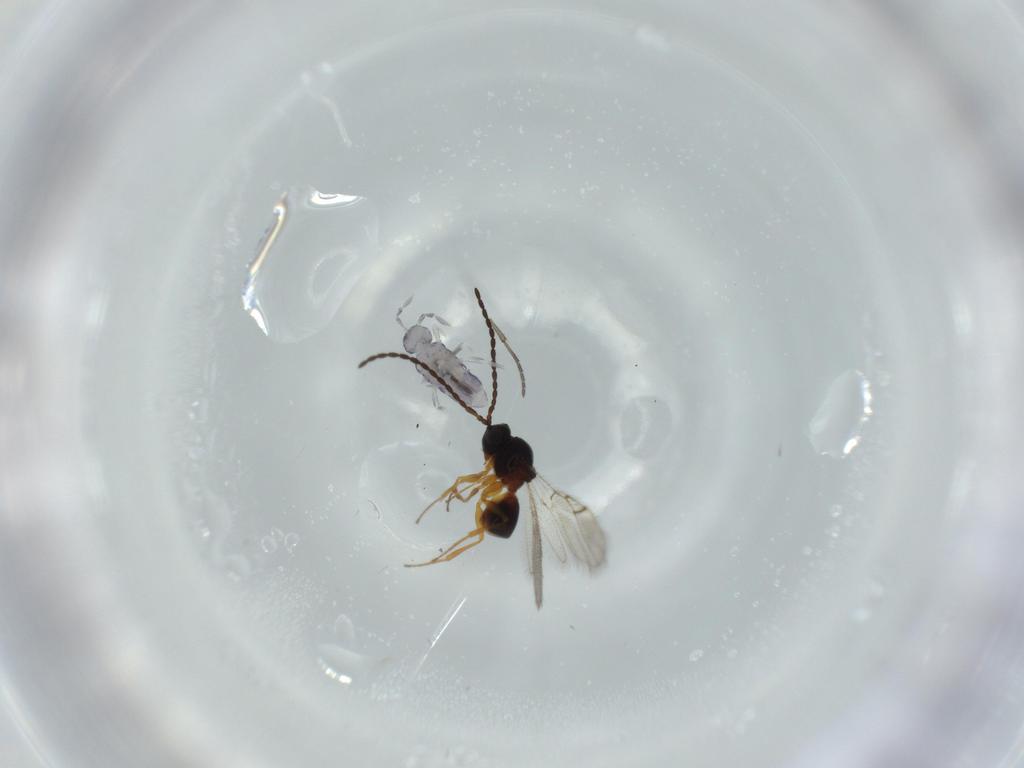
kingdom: Animalia
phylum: Arthropoda
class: Insecta
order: Hymenoptera
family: Figitidae
